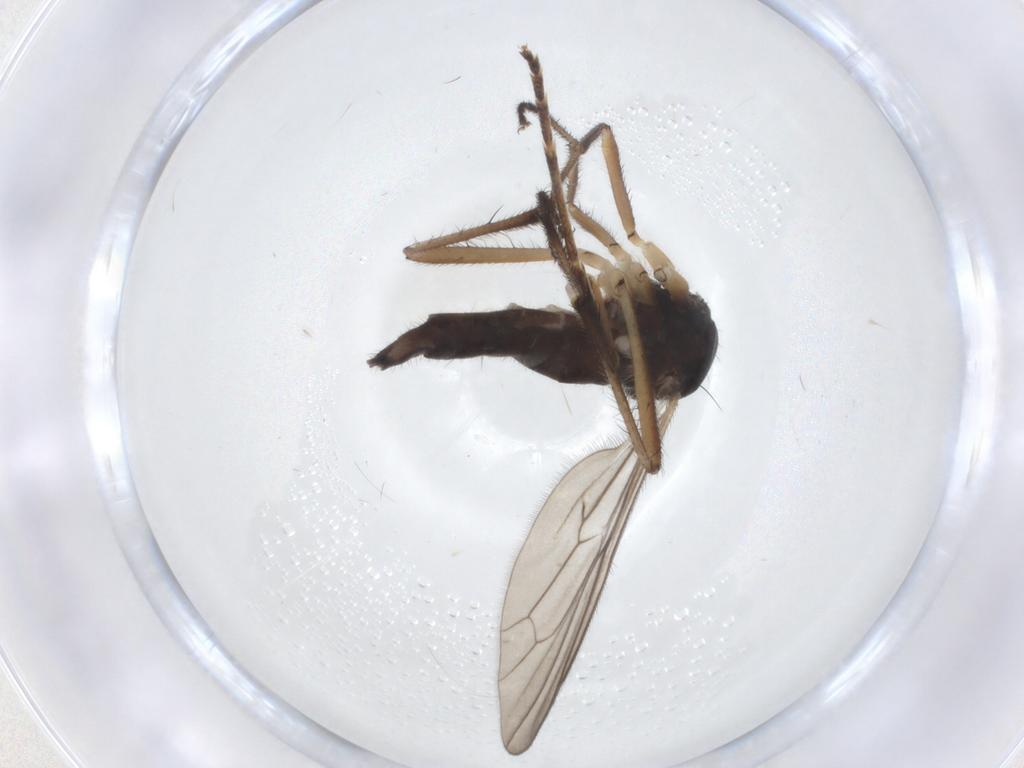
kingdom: Animalia
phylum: Arthropoda
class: Insecta
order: Diptera
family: Hybotidae
